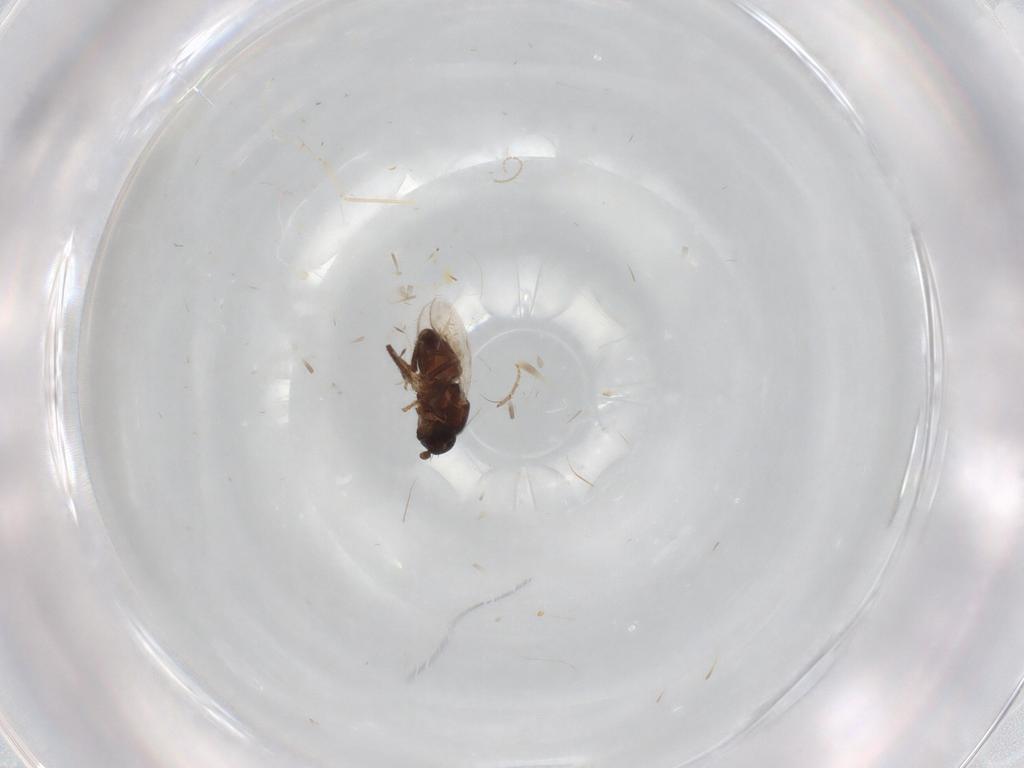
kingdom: Animalia
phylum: Arthropoda
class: Insecta
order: Diptera
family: Cecidomyiidae
